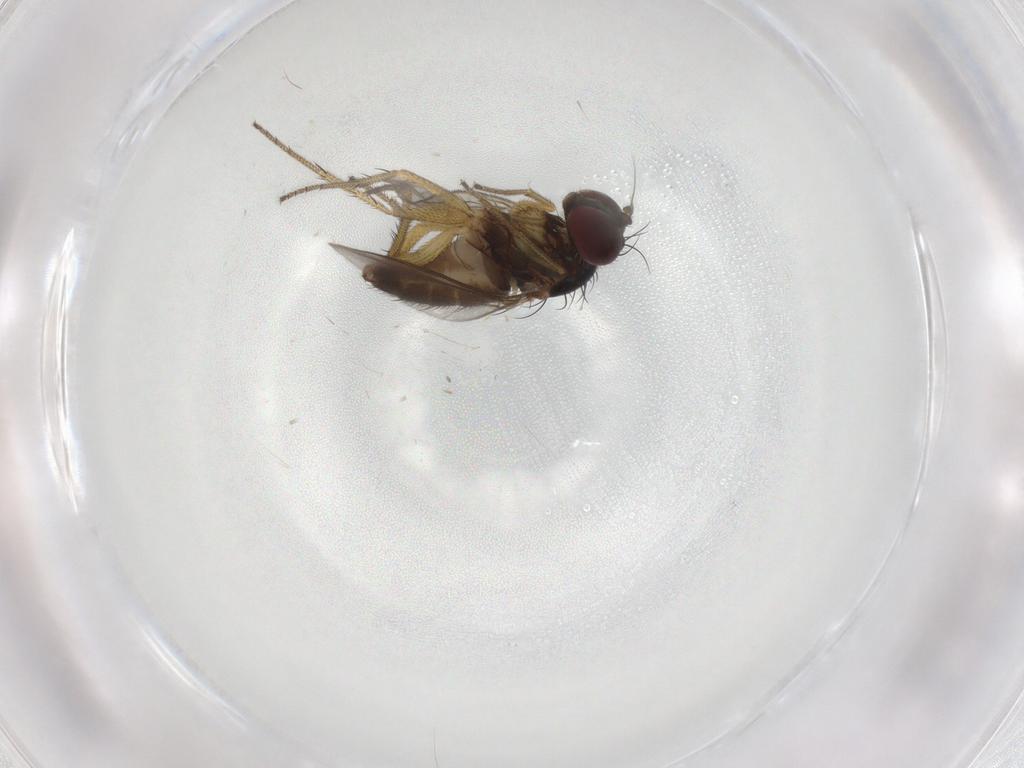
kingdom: Animalia
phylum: Arthropoda
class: Insecta
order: Diptera
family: Dolichopodidae
